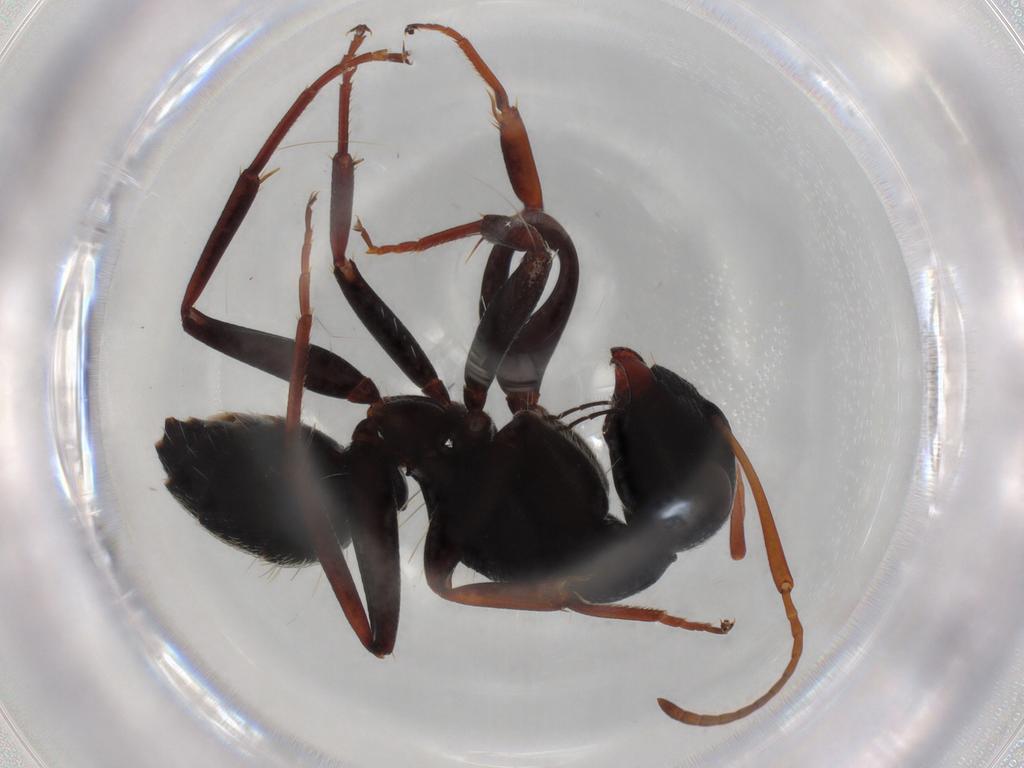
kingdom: Animalia
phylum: Arthropoda
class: Insecta
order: Hymenoptera
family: Formicidae
